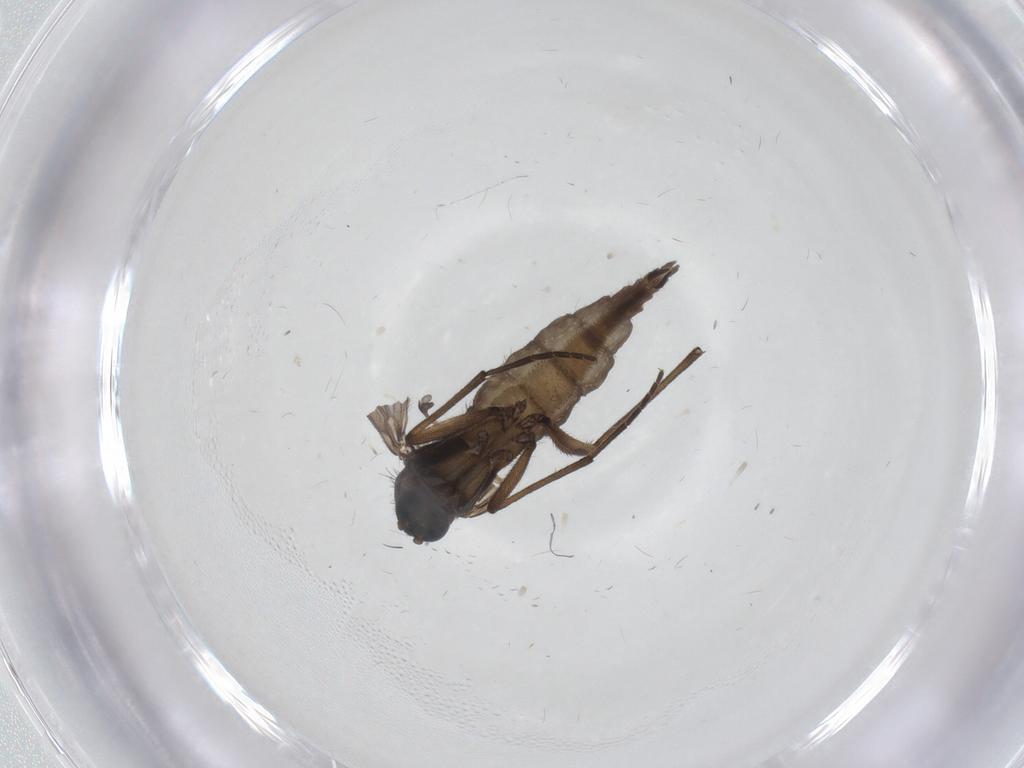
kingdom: Animalia
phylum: Arthropoda
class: Insecta
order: Diptera
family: Sciaridae
